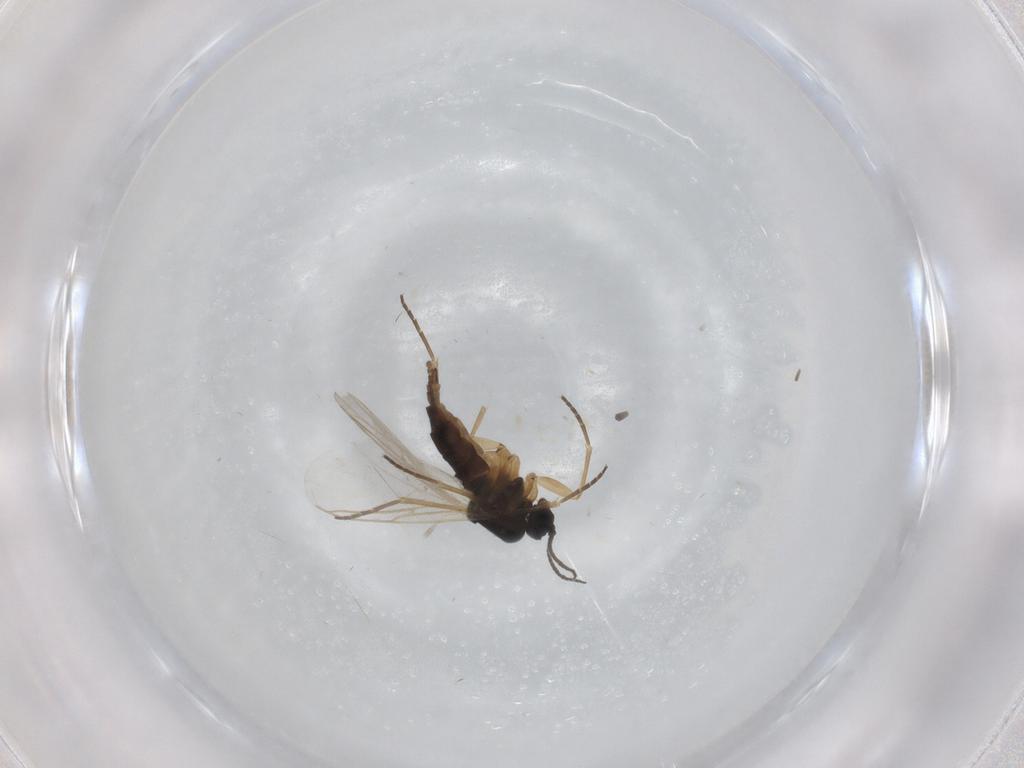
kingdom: Animalia
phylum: Arthropoda
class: Insecta
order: Diptera
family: Sciaridae
